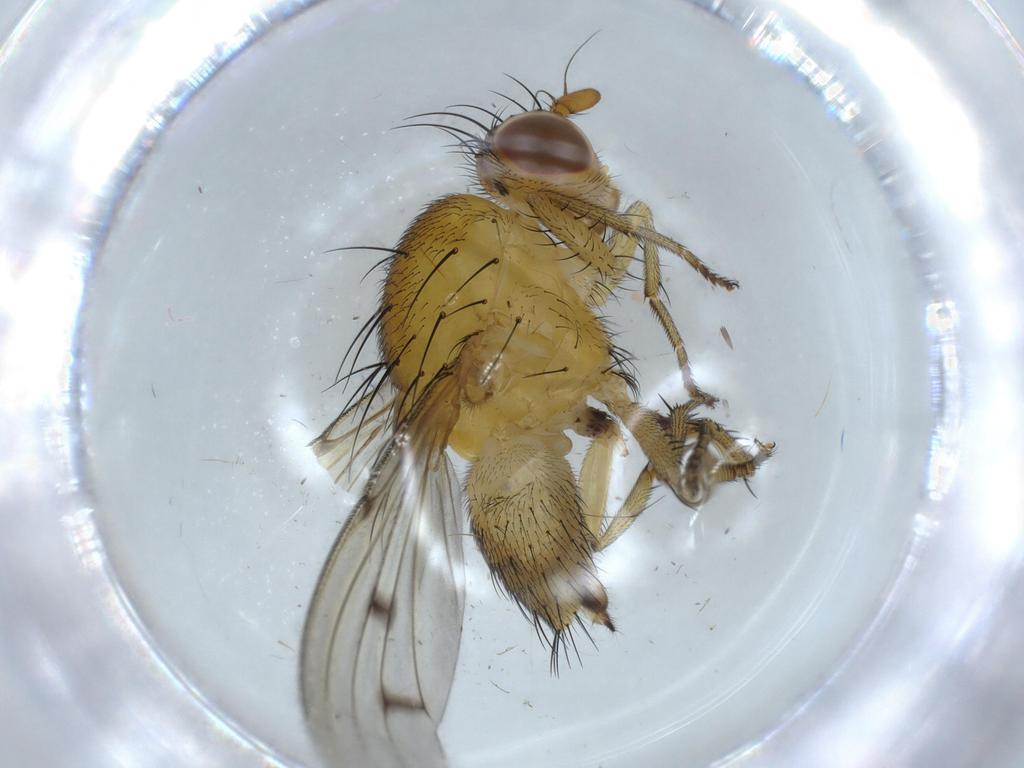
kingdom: Animalia
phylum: Arthropoda
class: Insecta
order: Diptera
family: Psychodidae
